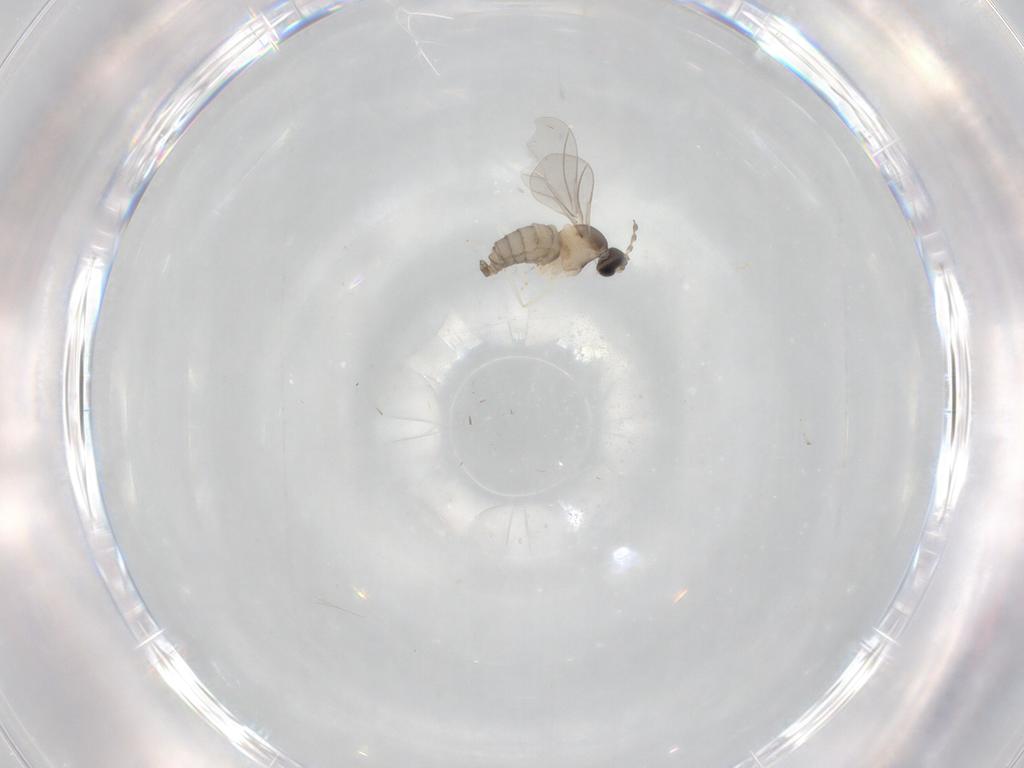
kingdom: Animalia
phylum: Arthropoda
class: Insecta
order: Diptera
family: Cecidomyiidae
